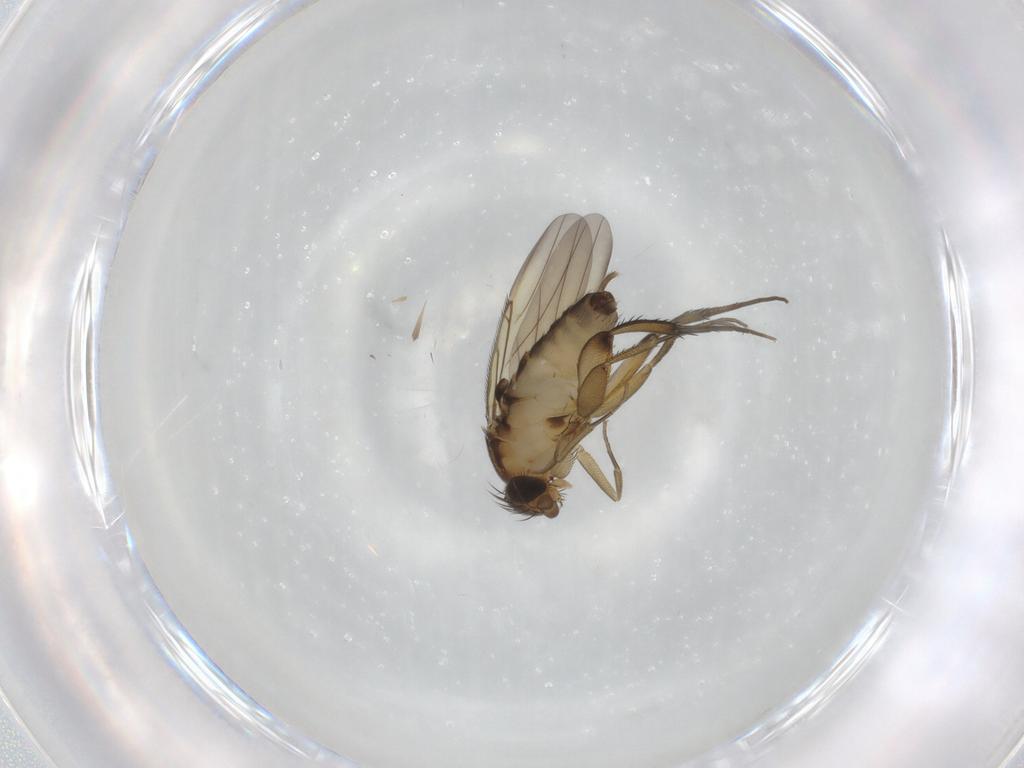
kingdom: Animalia
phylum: Arthropoda
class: Insecta
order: Diptera
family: Phoridae
